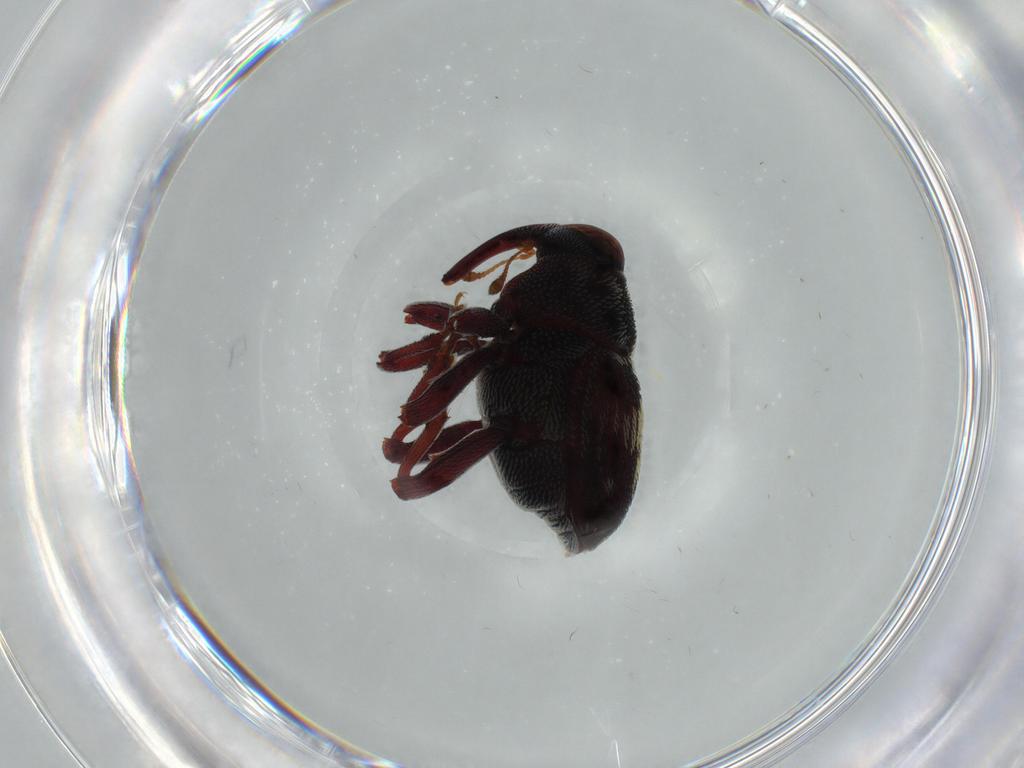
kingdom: Animalia
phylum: Arthropoda
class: Insecta
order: Coleoptera
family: Curculionidae
